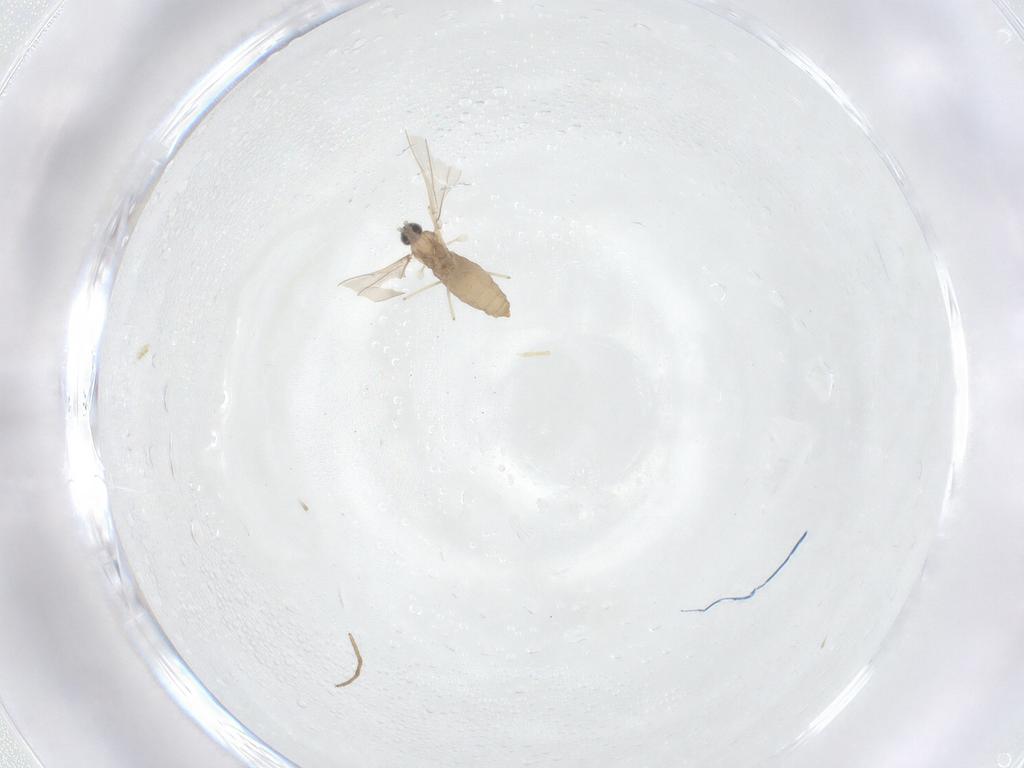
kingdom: Animalia
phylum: Arthropoda
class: Insecta
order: Diptera
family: Cecidomyiidae
